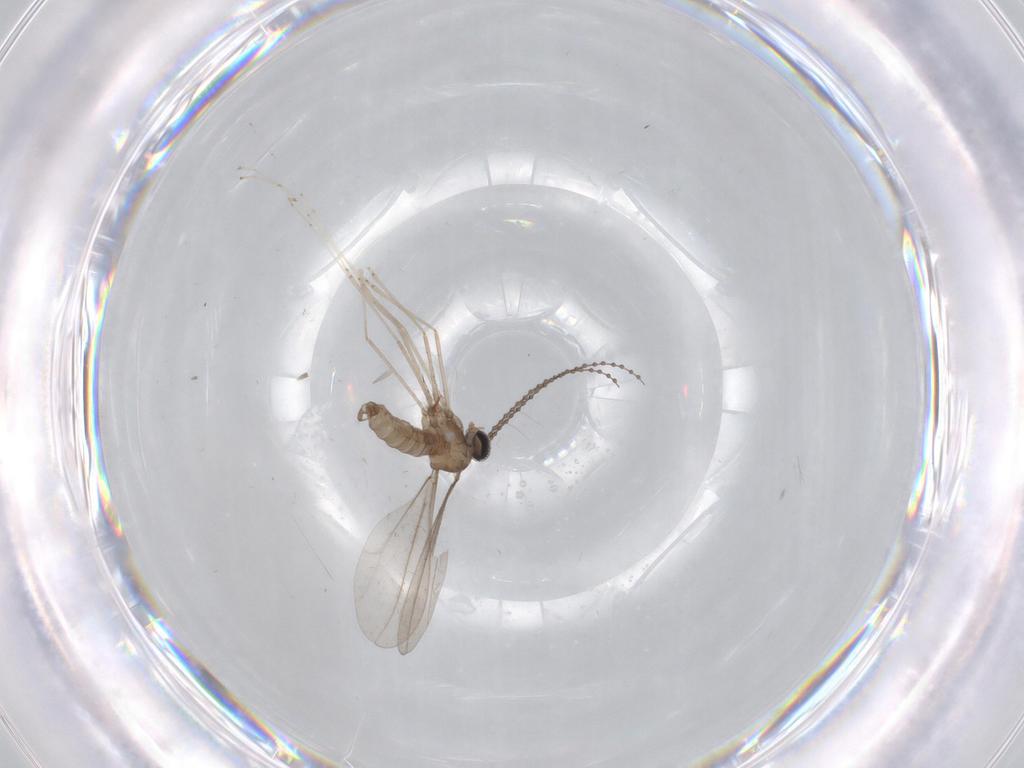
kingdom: Animalia
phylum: Arthropoda
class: Insecta
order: Diptera
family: Cecidomyiidae
